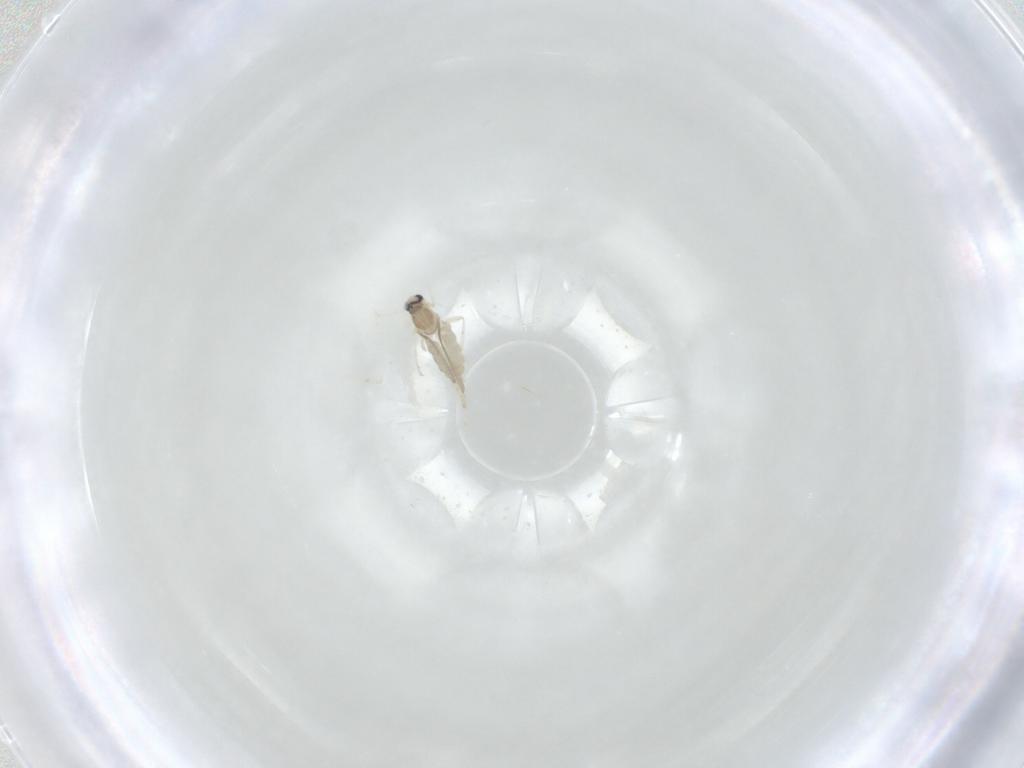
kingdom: Animalia
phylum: Arthropoda
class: Insecta
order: Diptera
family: Cecidomyiidae
